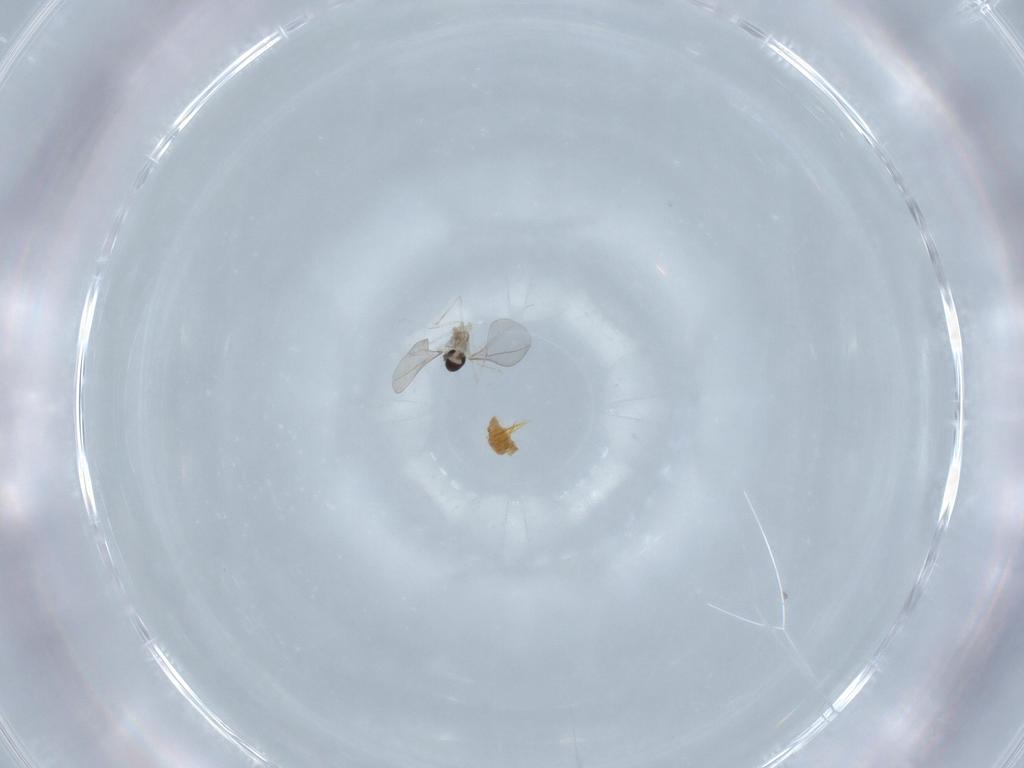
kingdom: Animalia
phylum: Arthropoda
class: Insecta
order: Diptera
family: Cecidomyiidae
